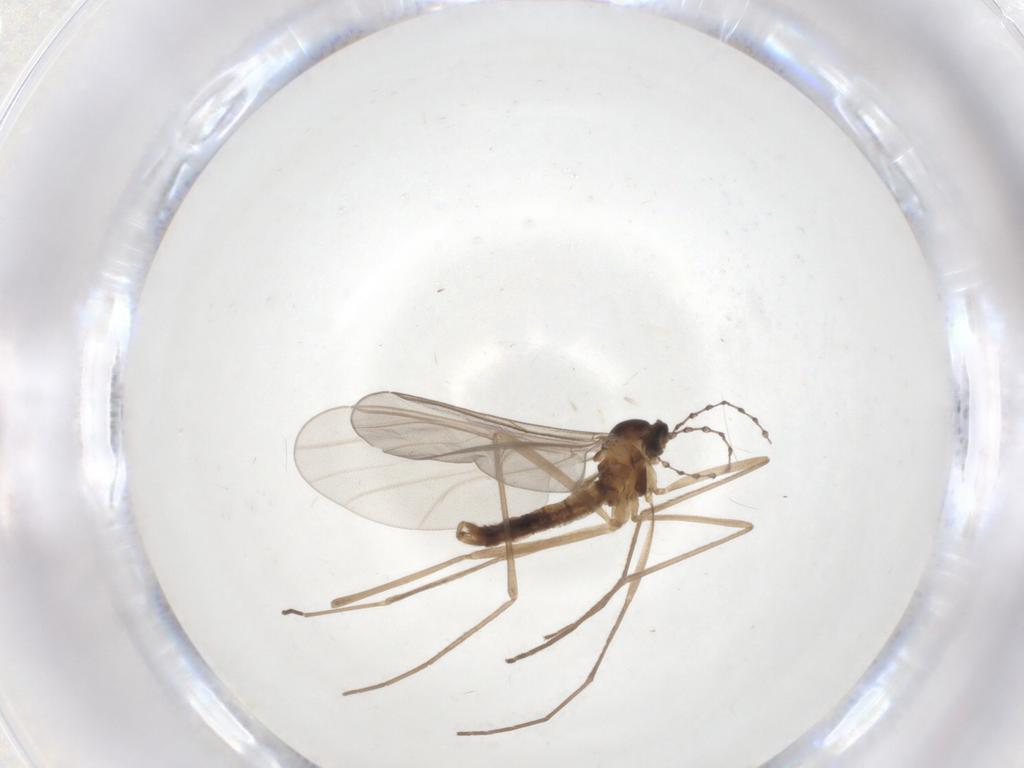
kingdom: Animalia
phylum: Arthropoda
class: Insecta
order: Diptera
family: Cecidomyiidae
